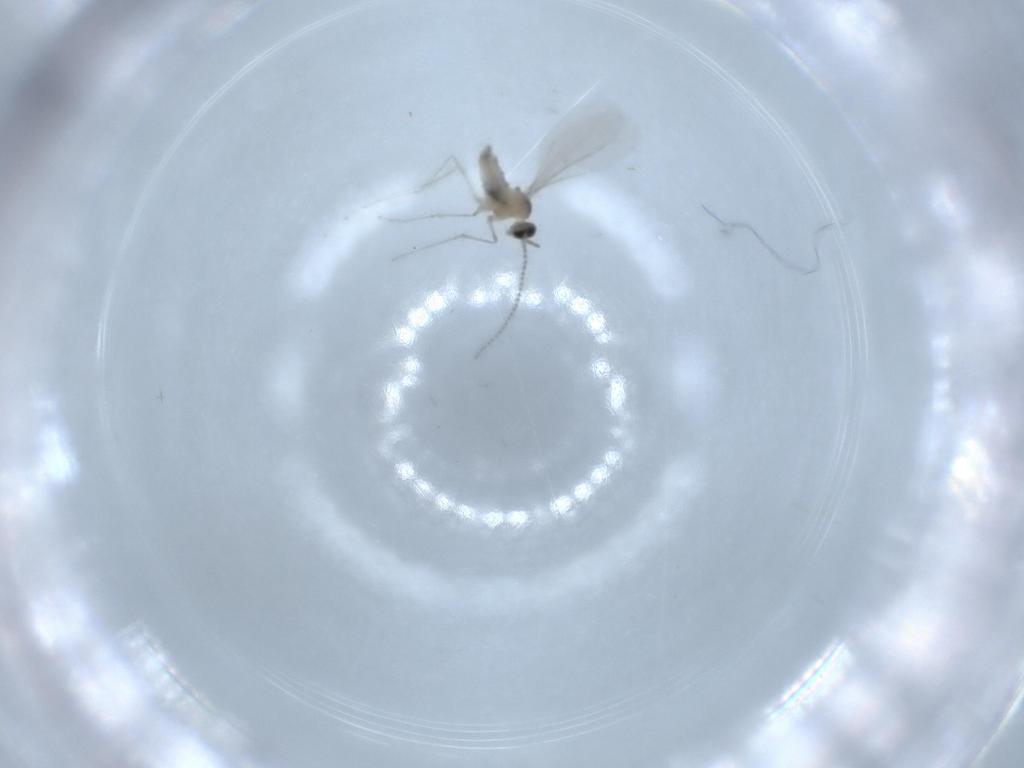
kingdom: Animalia
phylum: Arthropoda
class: Insecta
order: Diptera
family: Cecidomyiidae
